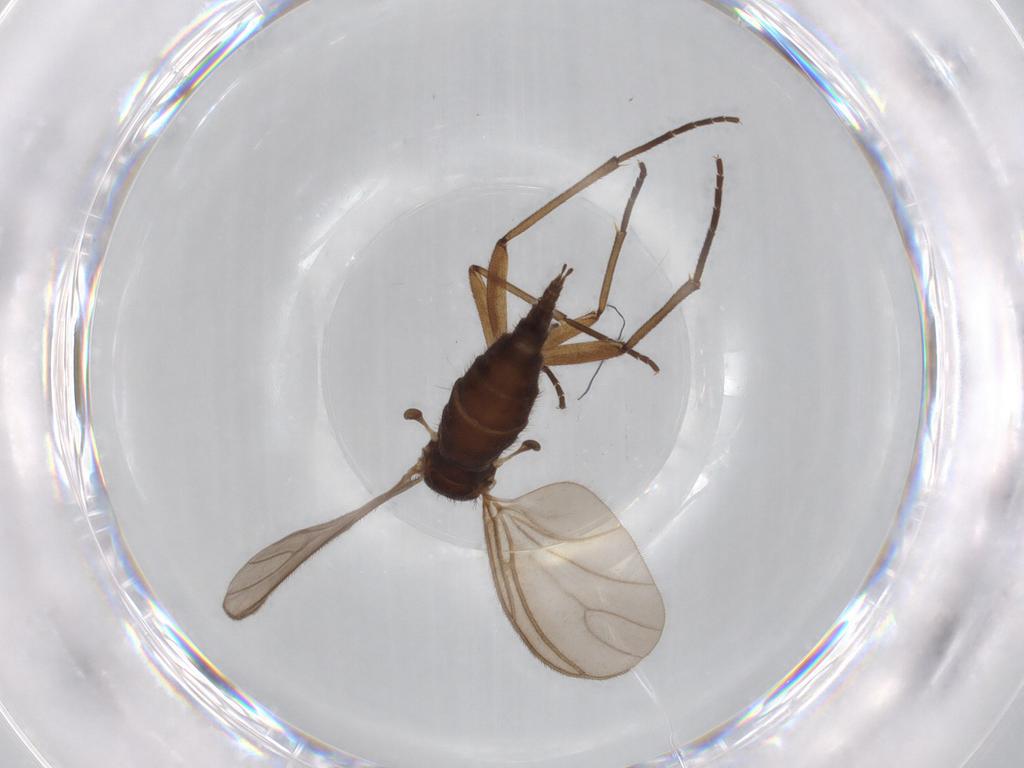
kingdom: Animalia
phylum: Arthropoda
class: Insecta
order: Diptera
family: Sciaridae
